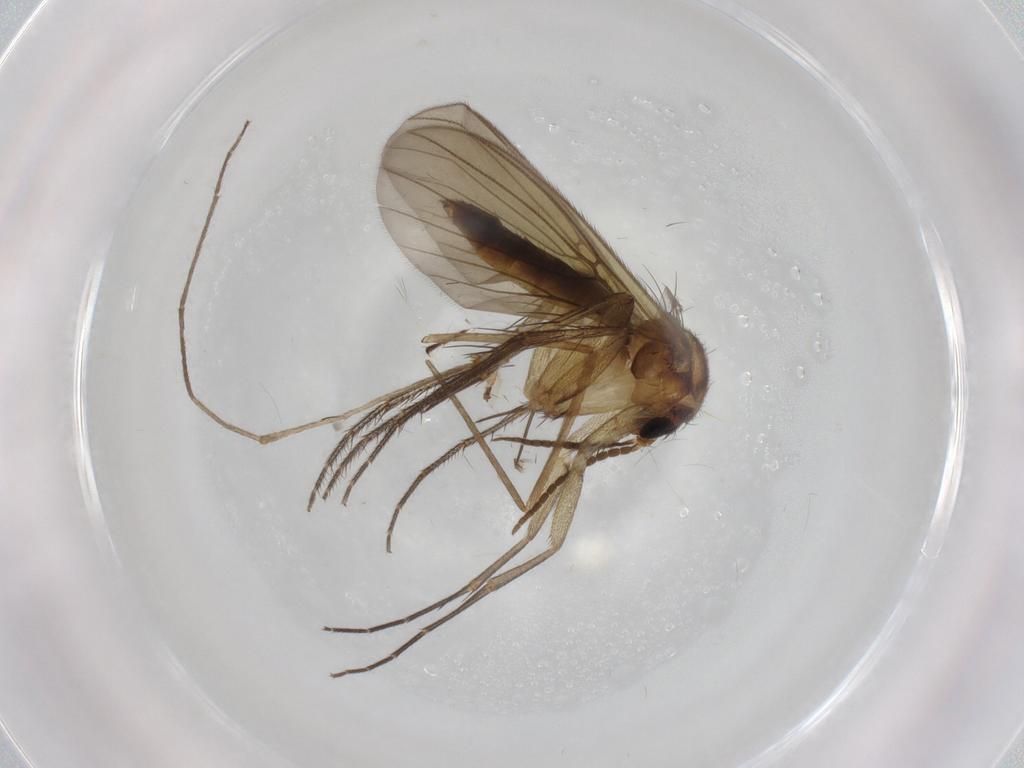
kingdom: Animalia
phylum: Arthropoda
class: Insecta
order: Diptera
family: Mycetophilidae
